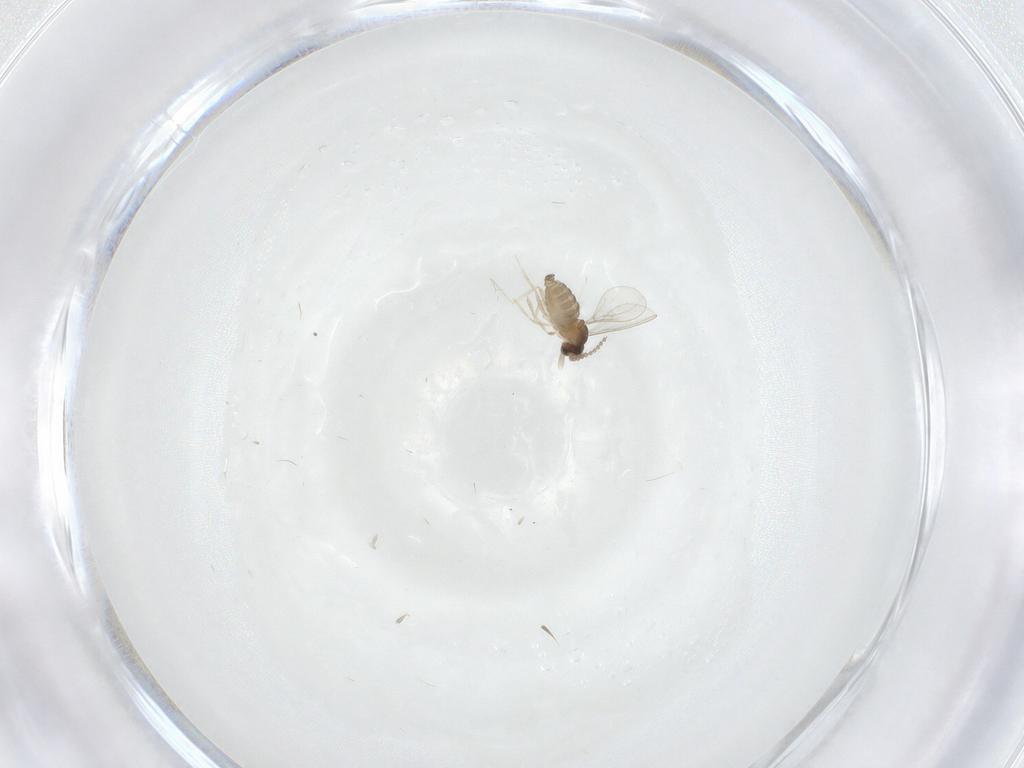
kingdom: Animalia
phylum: Arthropoda
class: Insecta
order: Diptera
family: Cecidomyiidae
